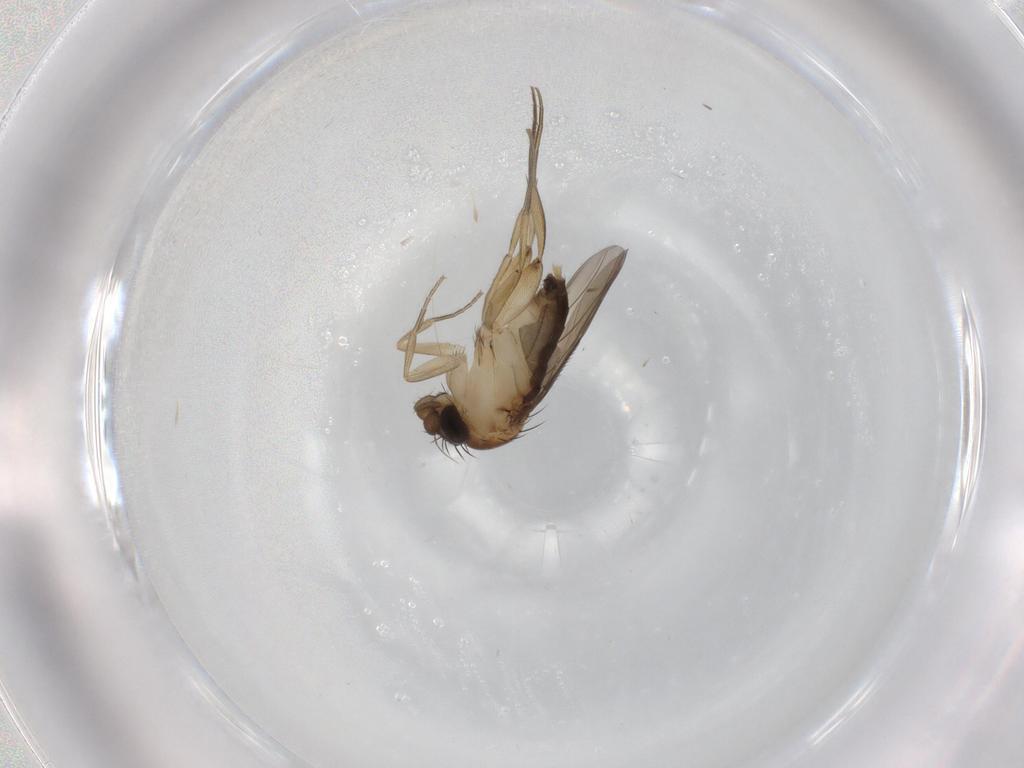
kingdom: Animalia
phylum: Arthropoda
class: Insecta
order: Diptera
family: Phoridae
